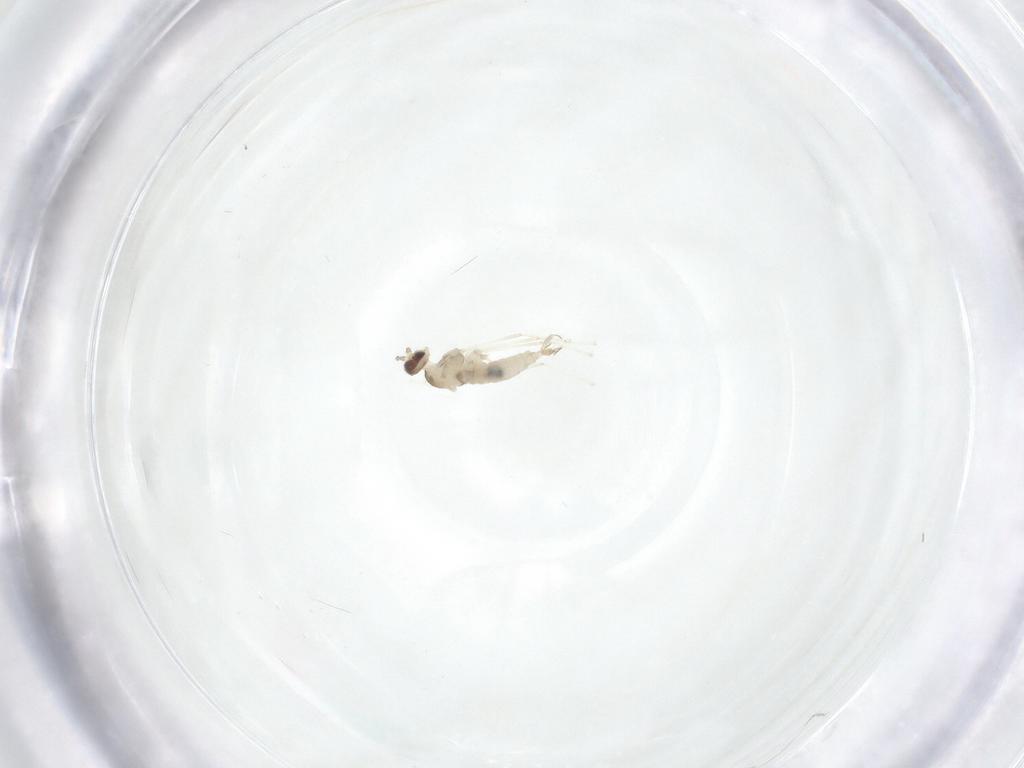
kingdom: Animalia
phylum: Arthropoda
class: Insecta
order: Diptera
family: Cecidomyiidae
